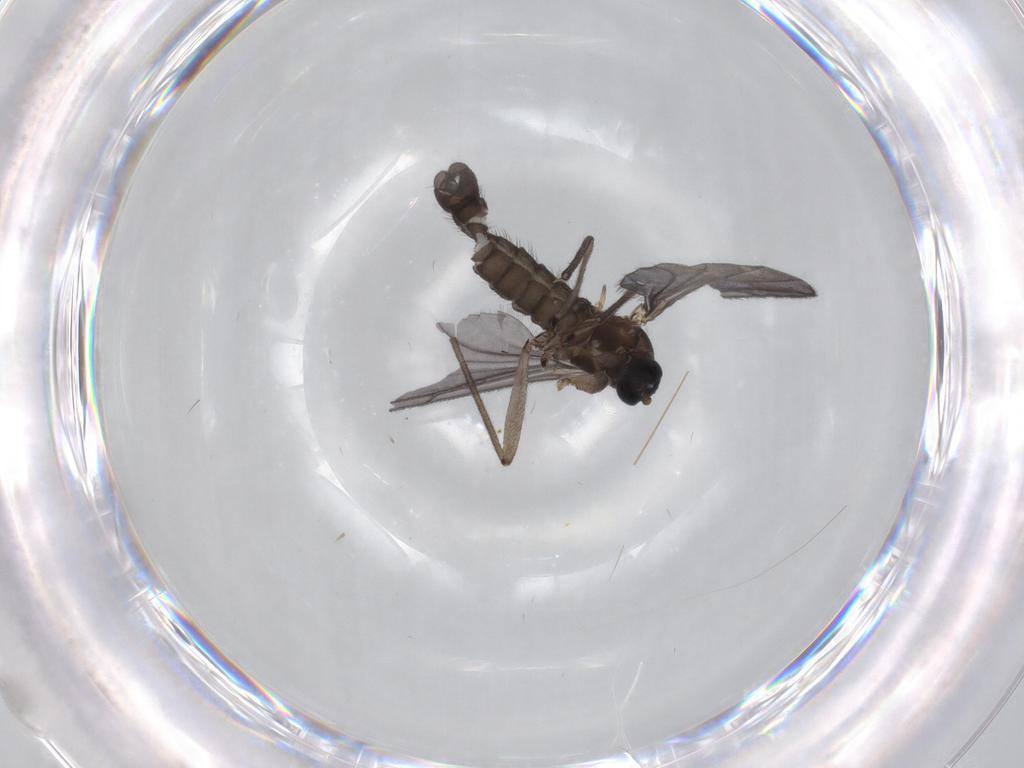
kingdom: Animalia
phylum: Arthropoda
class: Insecta
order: Diptera
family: Sciaridae
